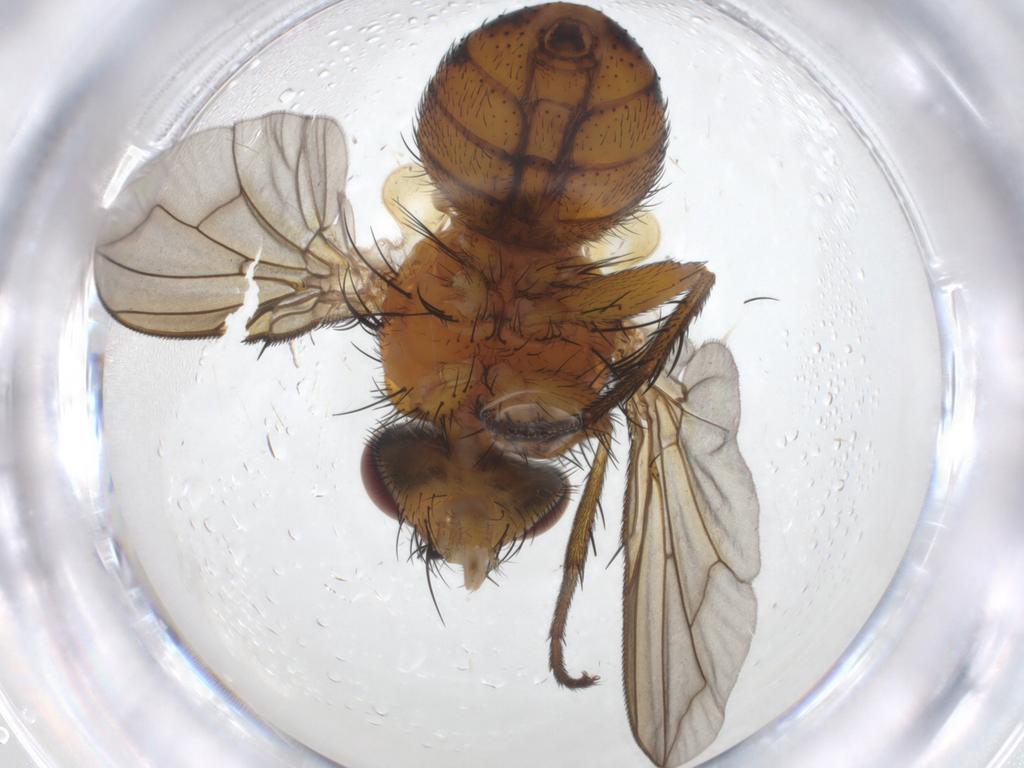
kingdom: Animalia
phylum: Arthropoda
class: Insecta
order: Diptera
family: Tachinidae
